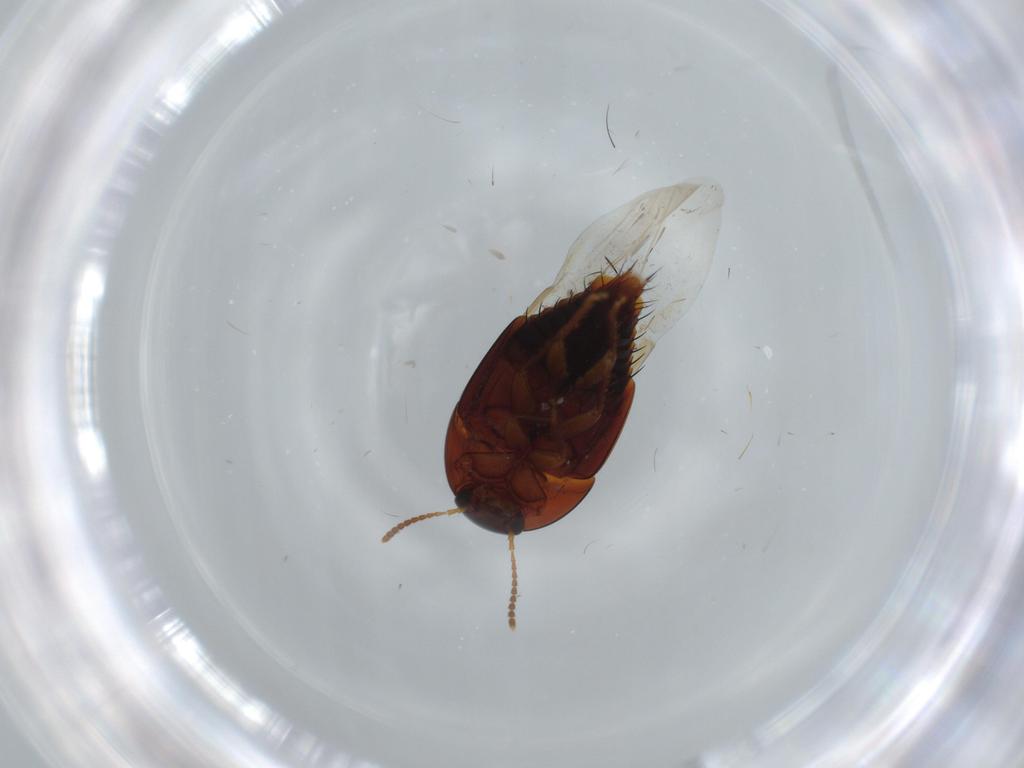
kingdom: Animalia
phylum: Arthropoda
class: Insecta
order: Coleoptera
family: Staphylinidae
